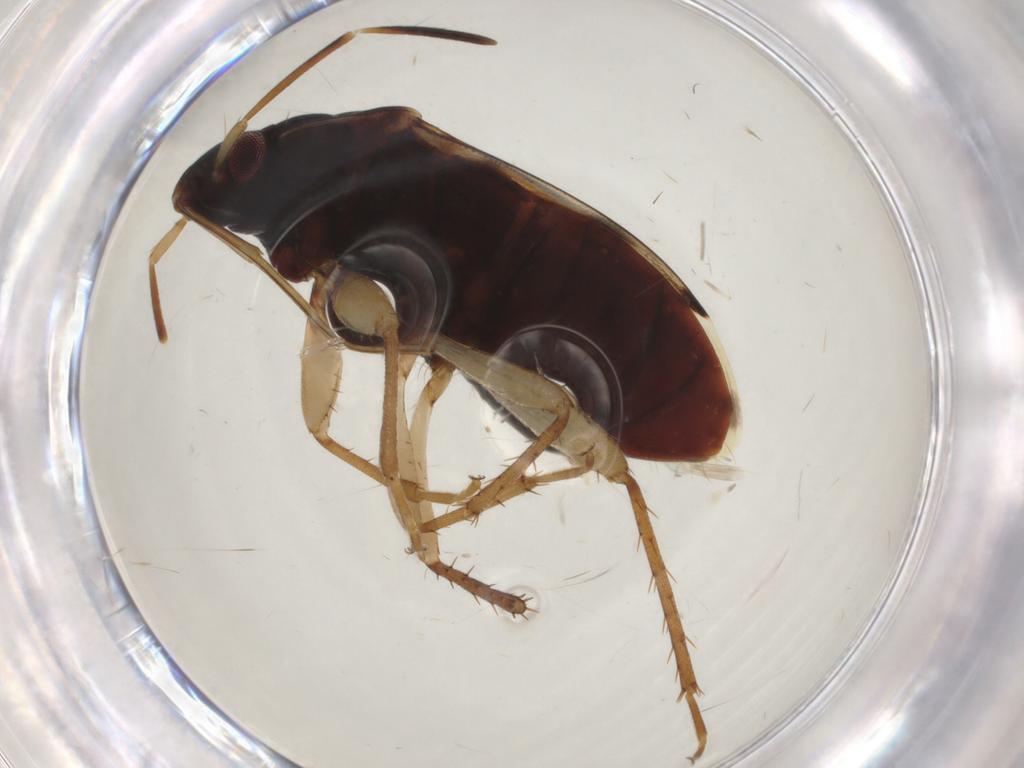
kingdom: Animalia
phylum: Arthropoda
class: Insecta
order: Hemiptera
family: Rhyparochromidae
